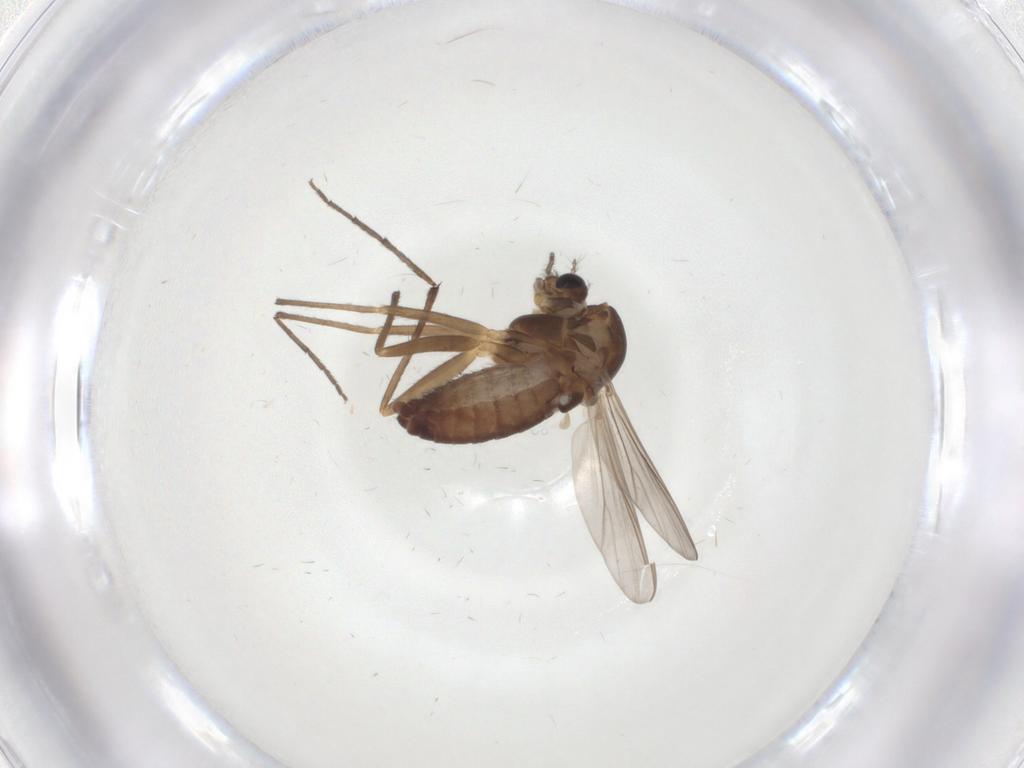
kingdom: Animalia
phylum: Arthropoda
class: Insecta
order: Diptera
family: Chironomidae
